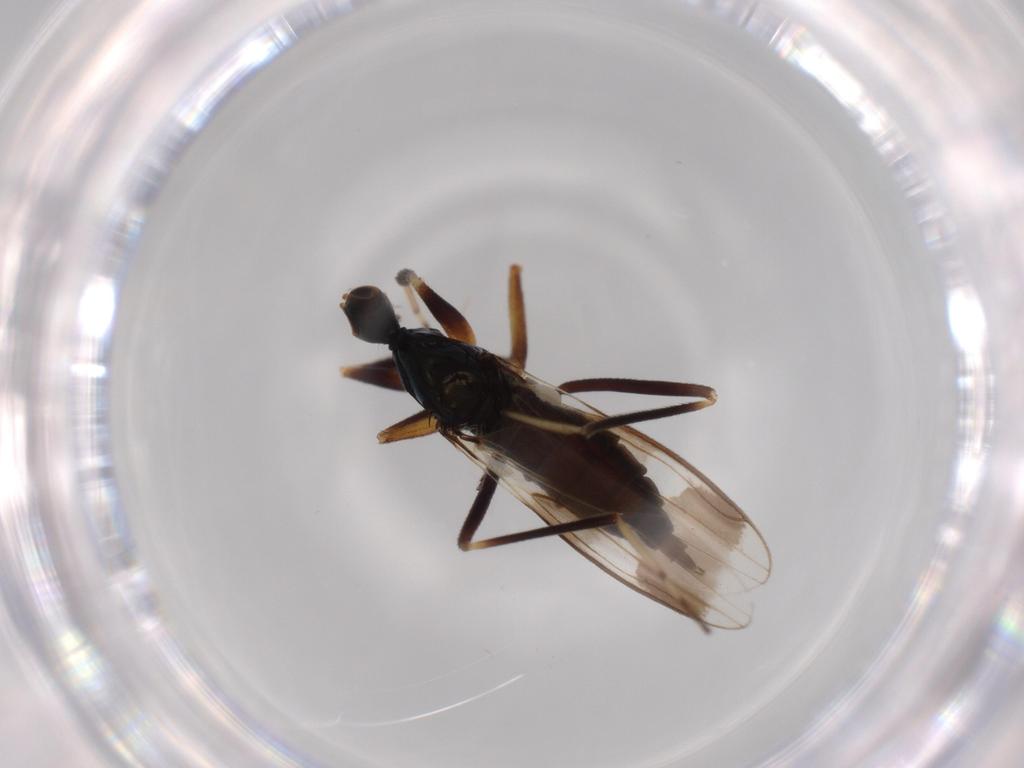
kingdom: Animalia
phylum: Arthropoda
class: Insecta
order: Diptera
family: Hybotidae
